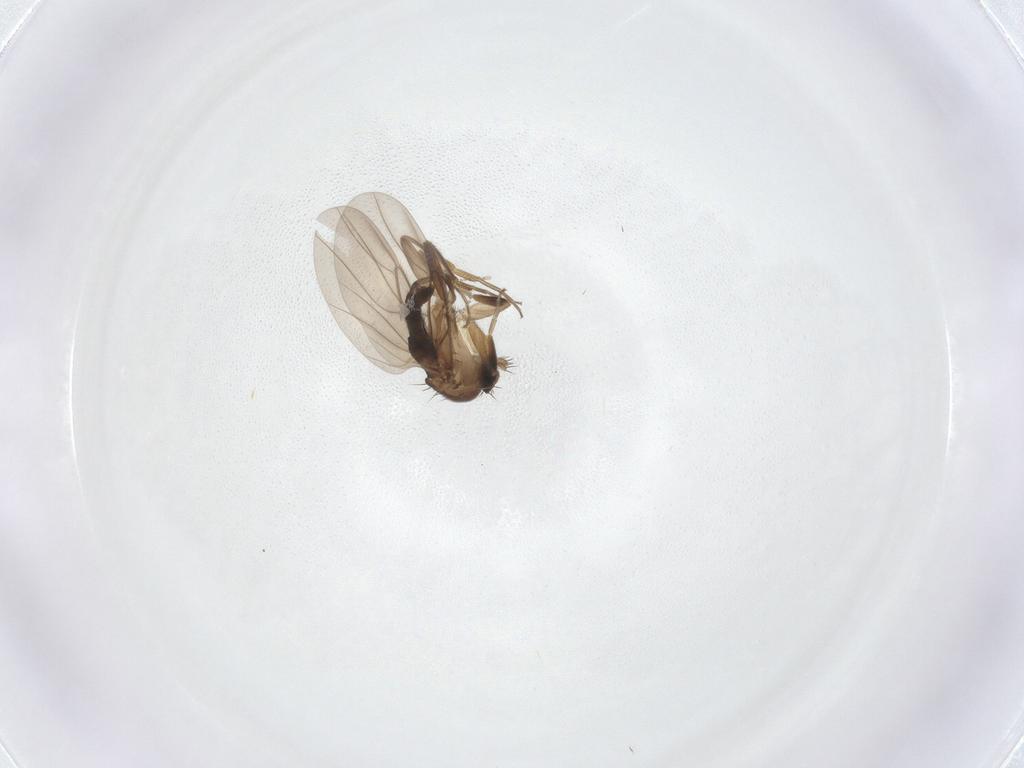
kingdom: Animalia
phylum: Arthropoda
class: Insecta
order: Diptera
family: Phoridae
